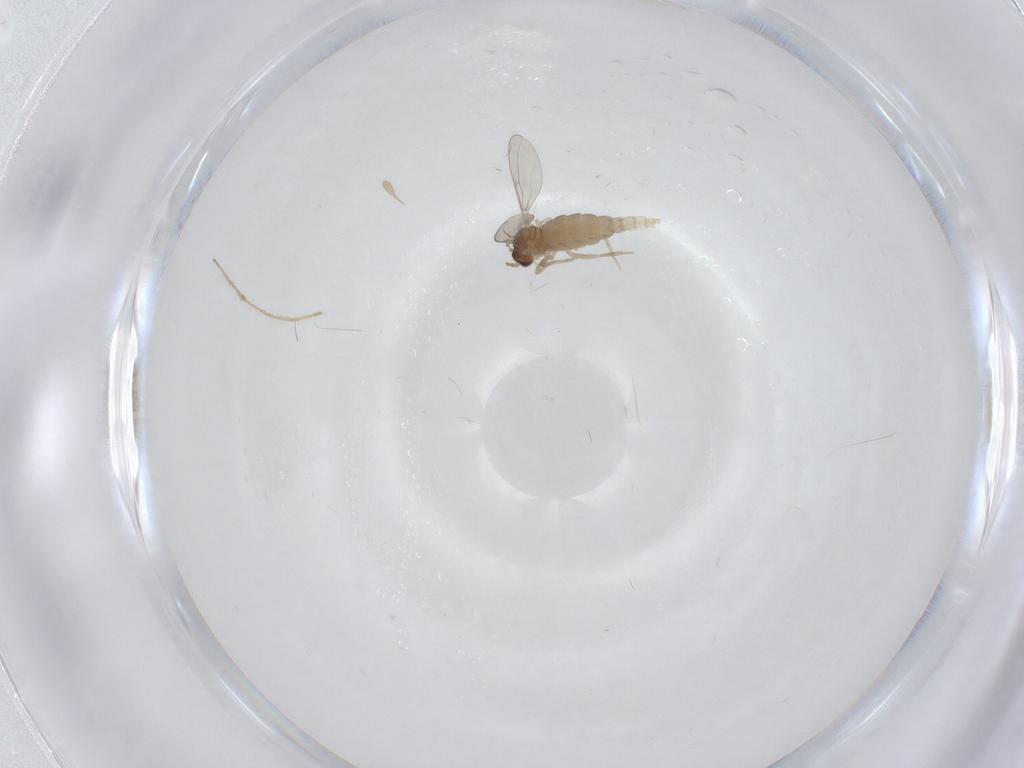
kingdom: Animalia
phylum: Arthropoda
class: Insecta
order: Diptera
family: Cecidomyiidae
